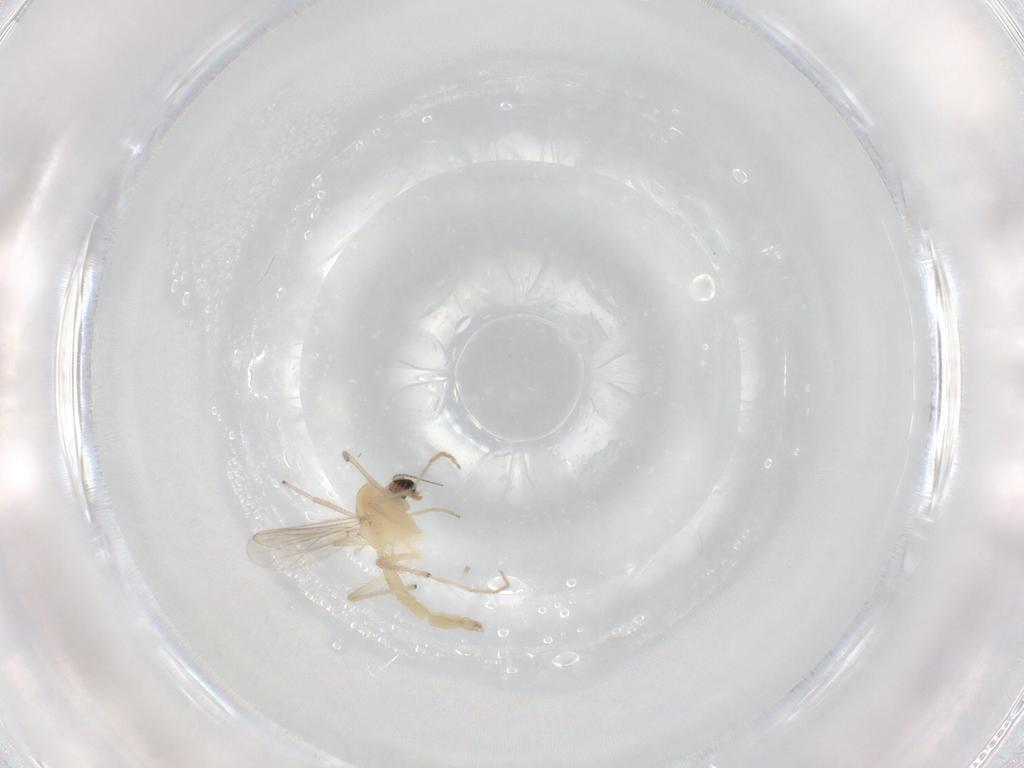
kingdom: Animalia
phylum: Arthropoda
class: Insecta
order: Diptera
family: Chironomidae
